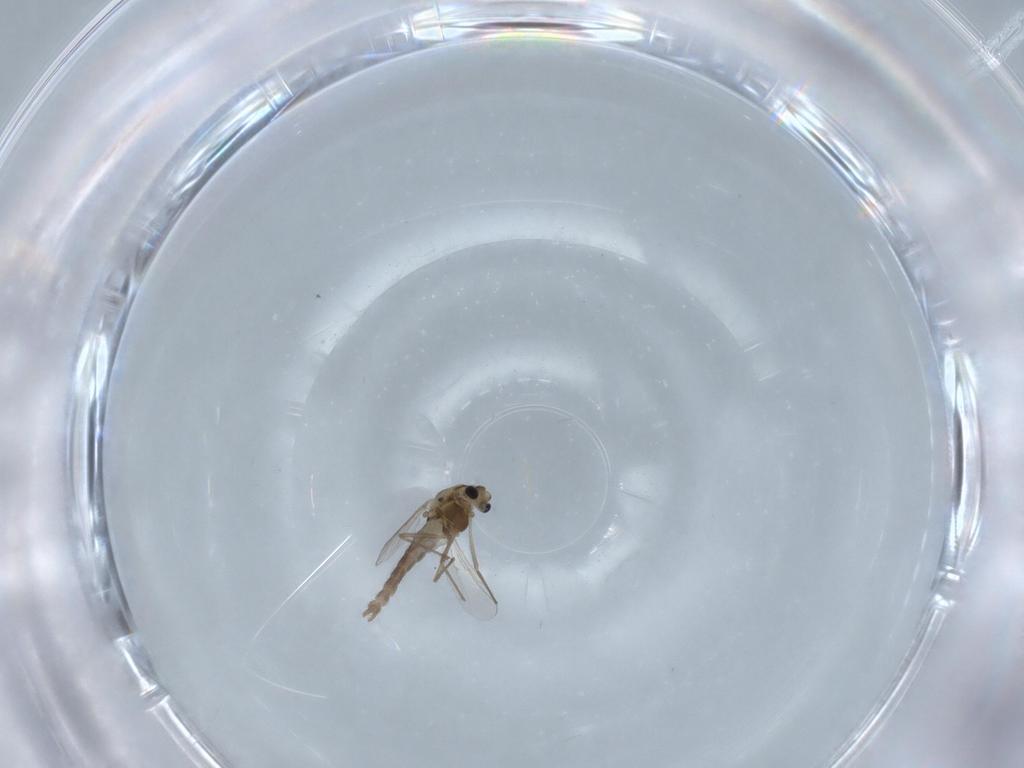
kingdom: Animalia
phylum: Arthropoda
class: Insecta
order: Diptera
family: Chironomidae
